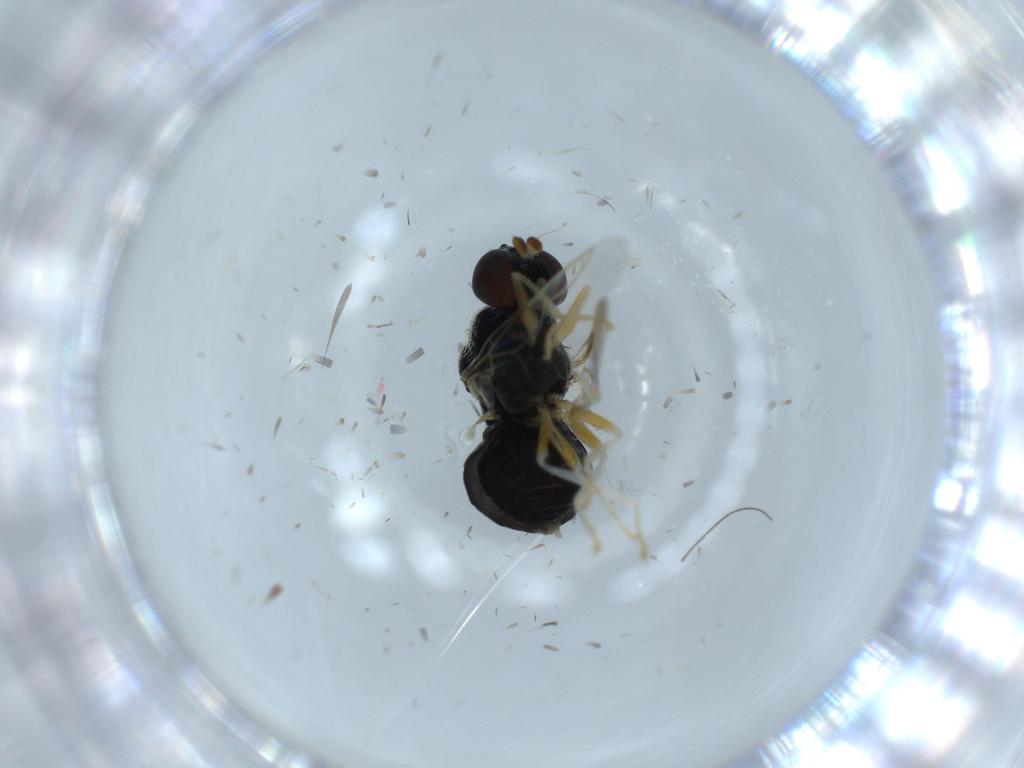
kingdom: Animalia
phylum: Arthropoda
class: Insecta
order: Diptera
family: Stratiomyidae
